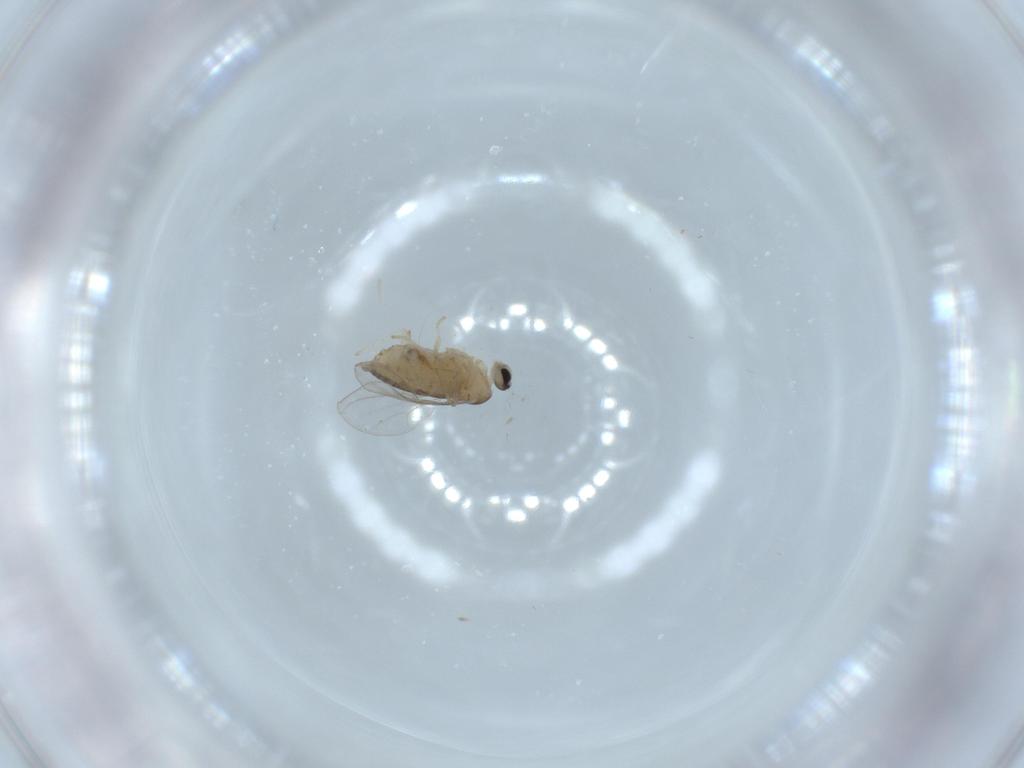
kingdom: Animalia
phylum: Arthropoda
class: Insecta
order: Diptera
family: Cecidomyiidae
